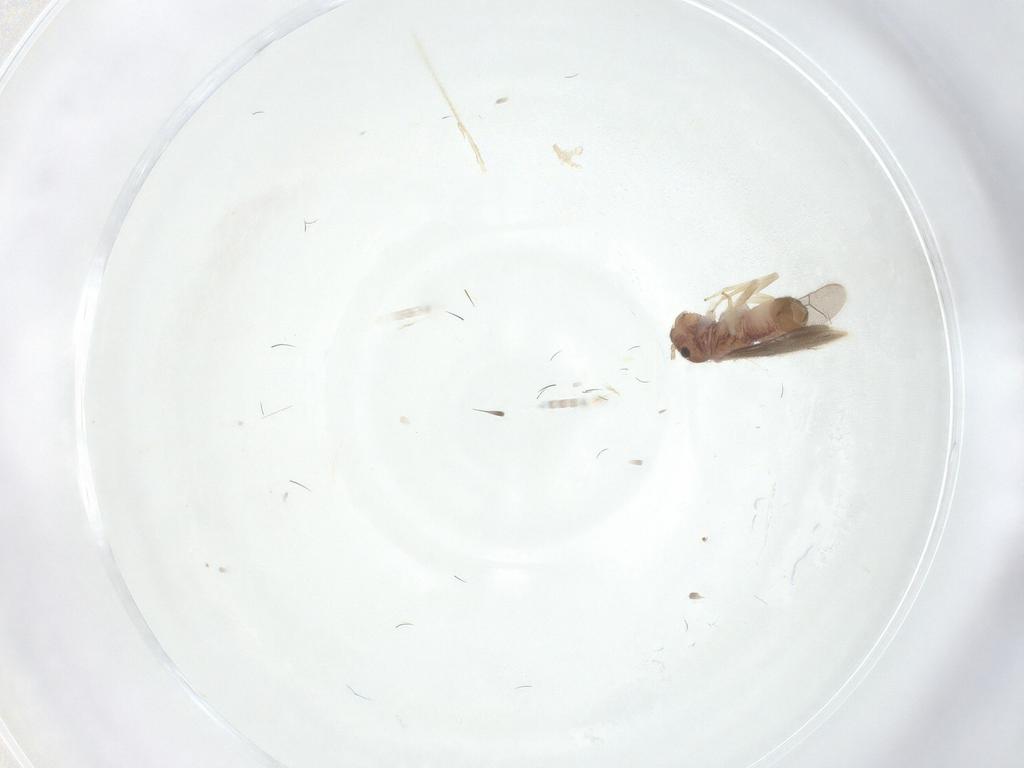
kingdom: Animalia
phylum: Arthropoda
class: Insecta
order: Psocodea
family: Archipsocidae
